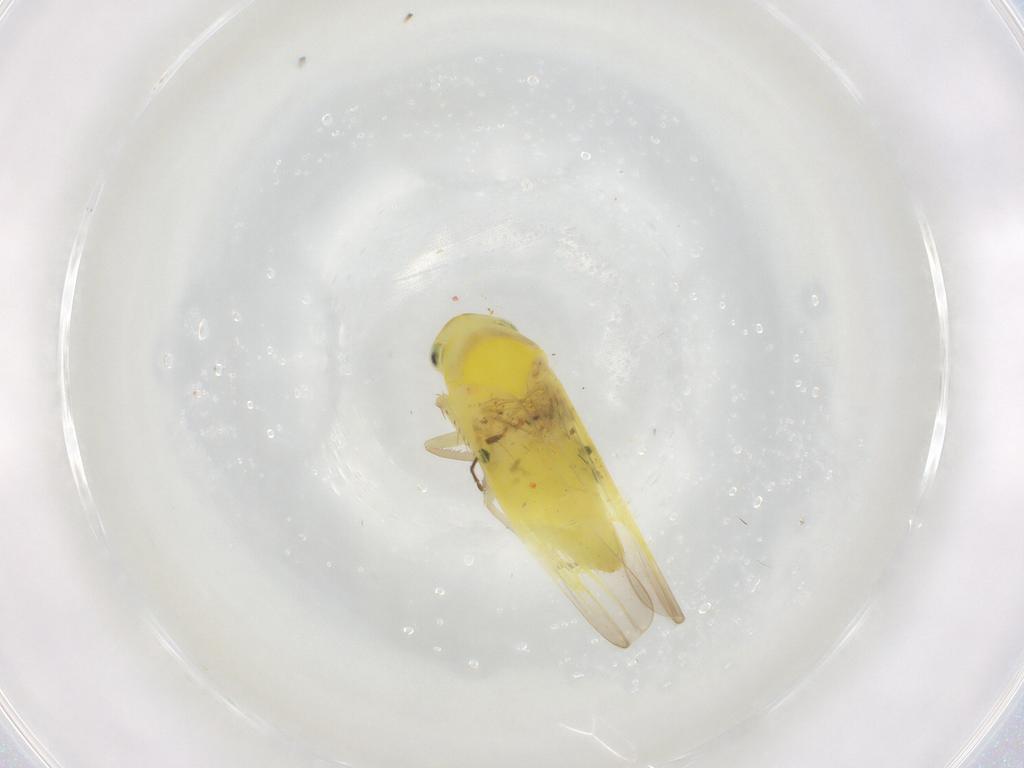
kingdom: Animalia
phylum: Arthropoda
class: Insecta
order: Hemiptera
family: Cicadellidae
